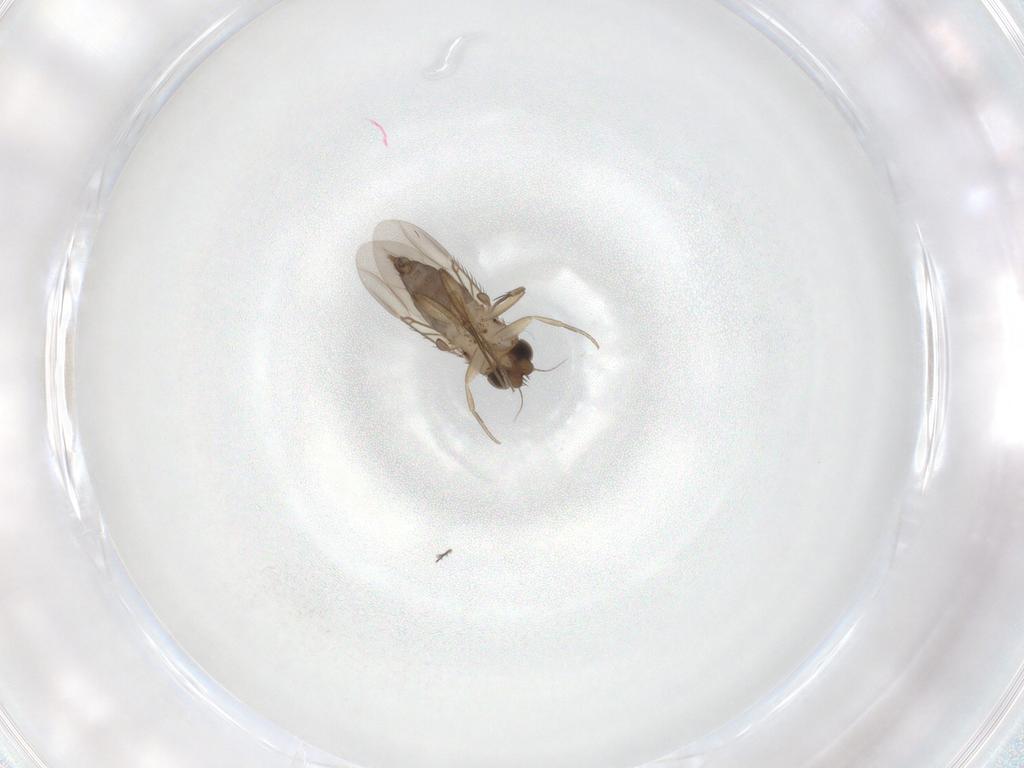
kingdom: Animalia
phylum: Arthropoda
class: Insecta
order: Diptera
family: Phoridae
